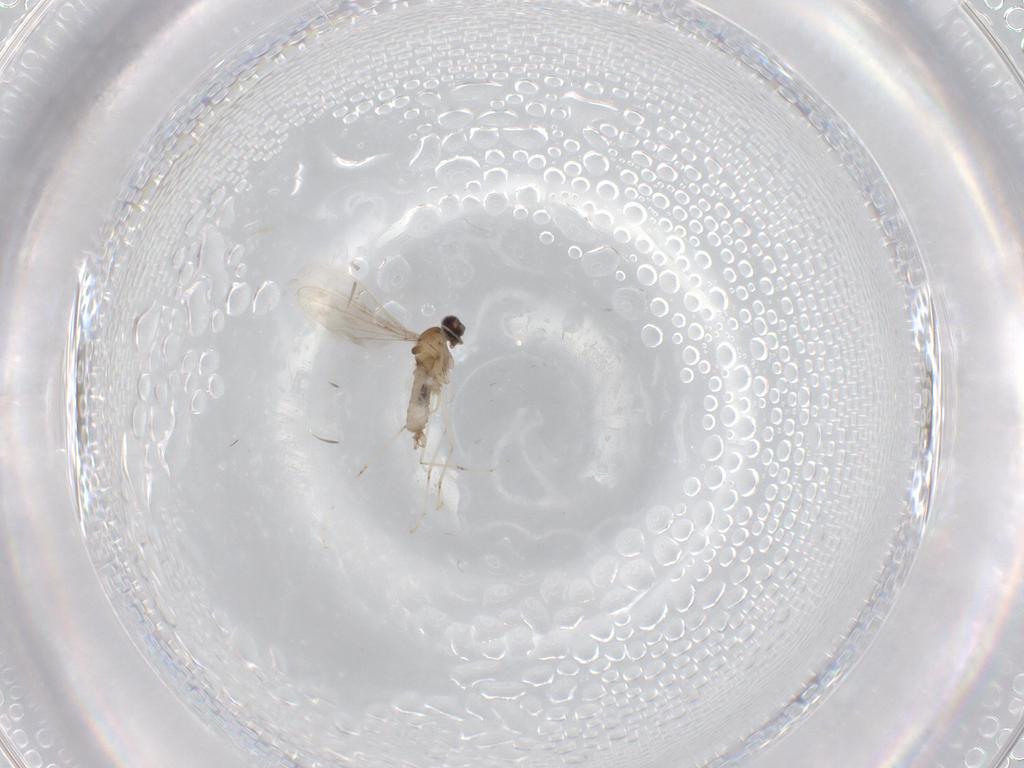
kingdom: Animalia
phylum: Arthropoda
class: Insecta
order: Diptera
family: Cecidomyiidae
